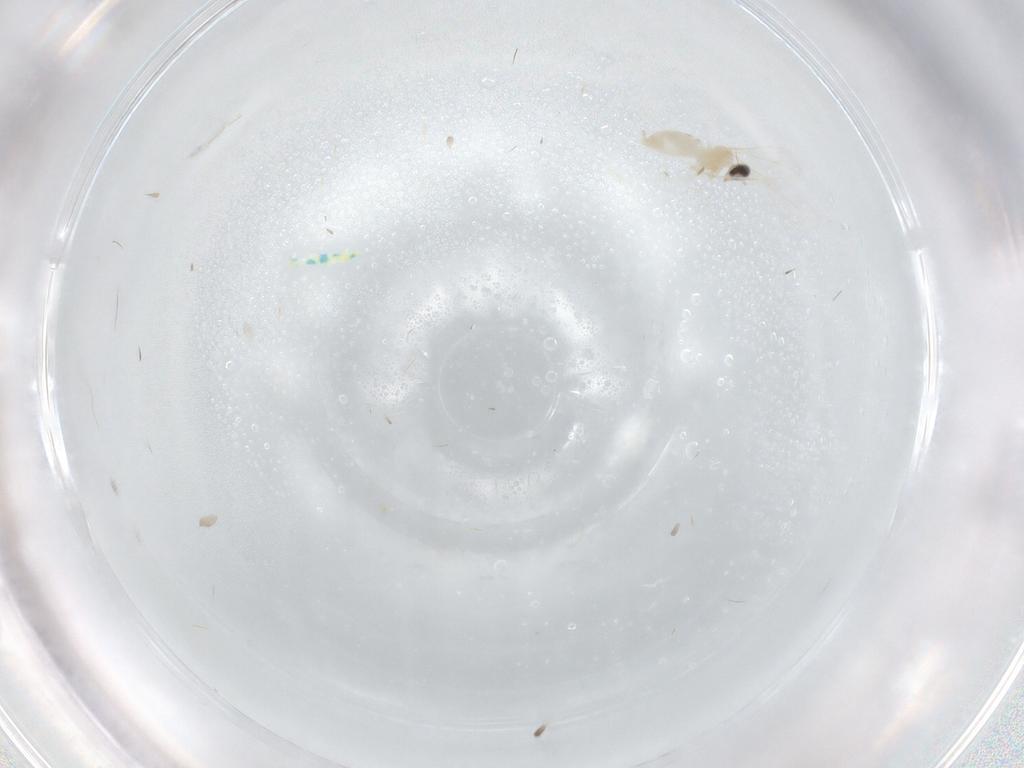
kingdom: Animalia
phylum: Arthropoda
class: Insecta
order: Diptera
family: Cecidomyiidae
